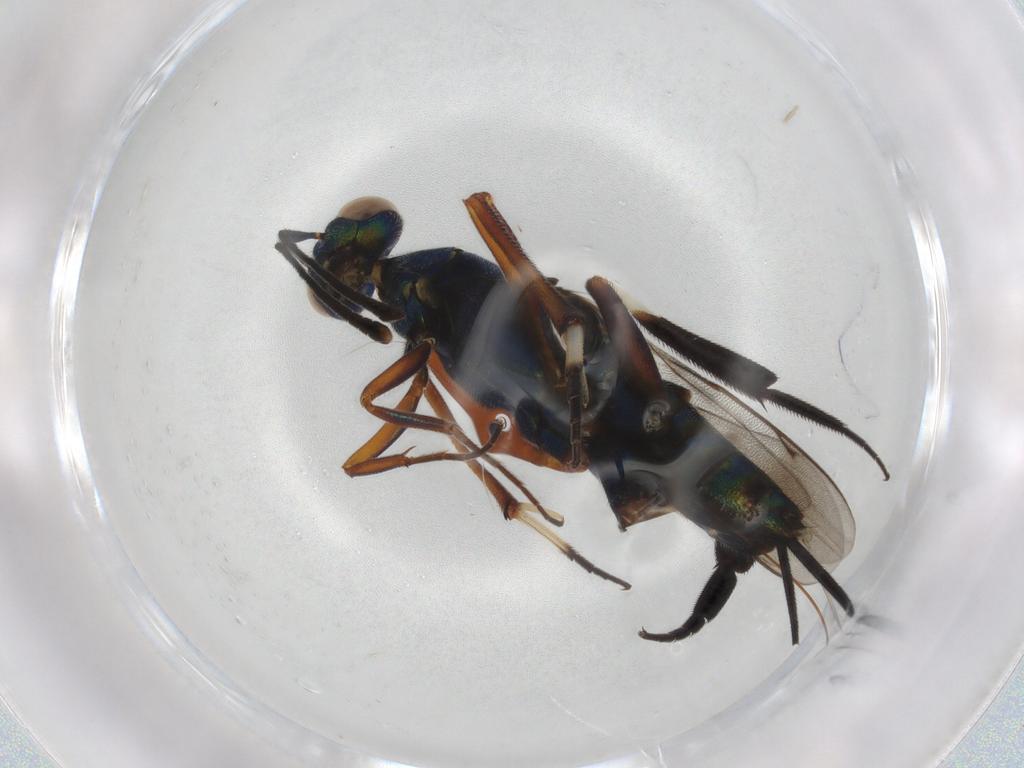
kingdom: Animalia
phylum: Arthropoda
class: Insecta
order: Hymenoptera
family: Eupelmidae
